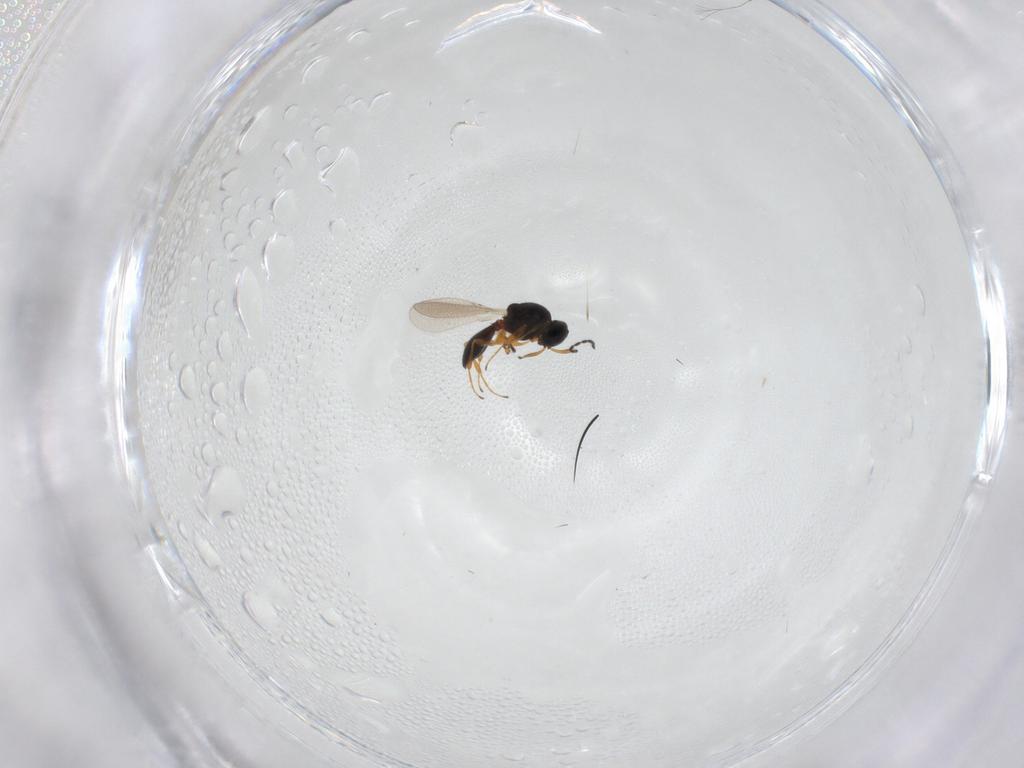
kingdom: Animalia
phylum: Arthropoda
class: Insecta
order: Hymenoptera
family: Platygastridae
